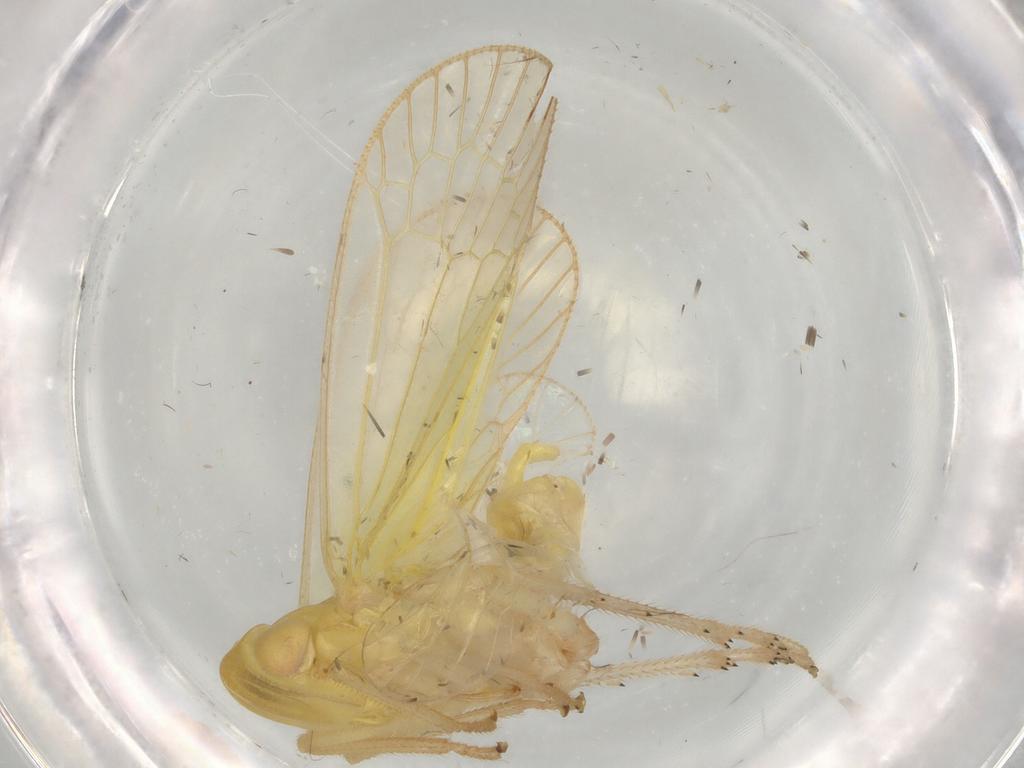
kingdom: Animalia
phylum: Arthropoda
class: Insecta
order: Hemiptera
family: Tropiduchidae
